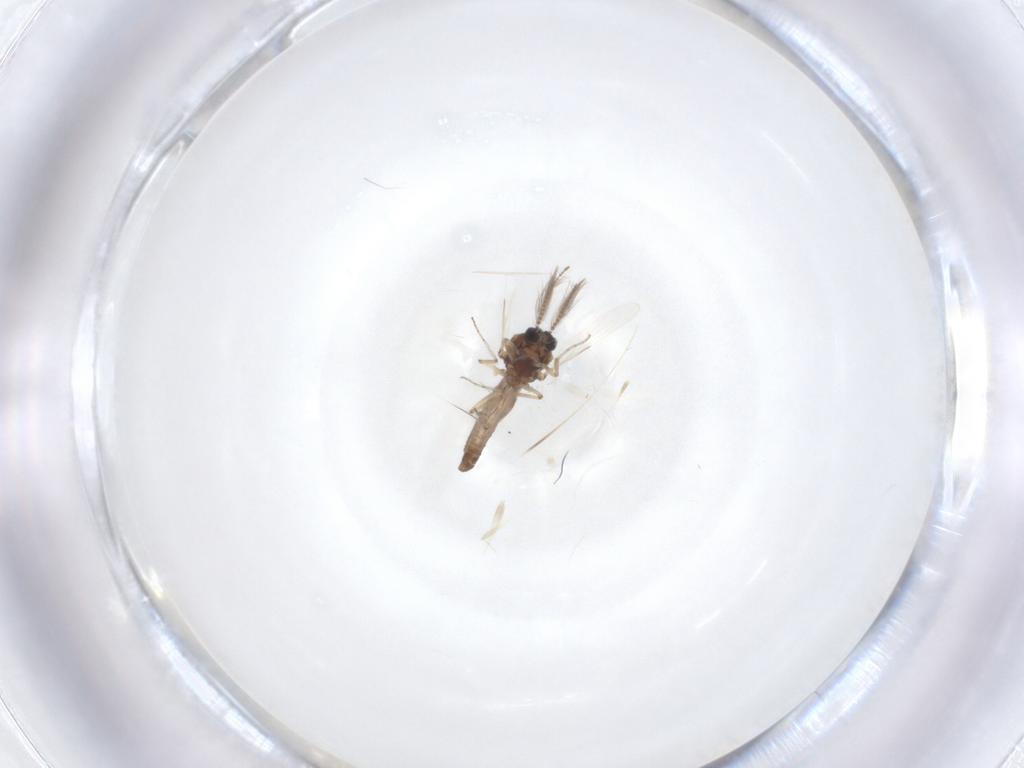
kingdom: Animalia
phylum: Arthropoda
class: Insecta
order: Diptera
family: Ceratopogonidae
